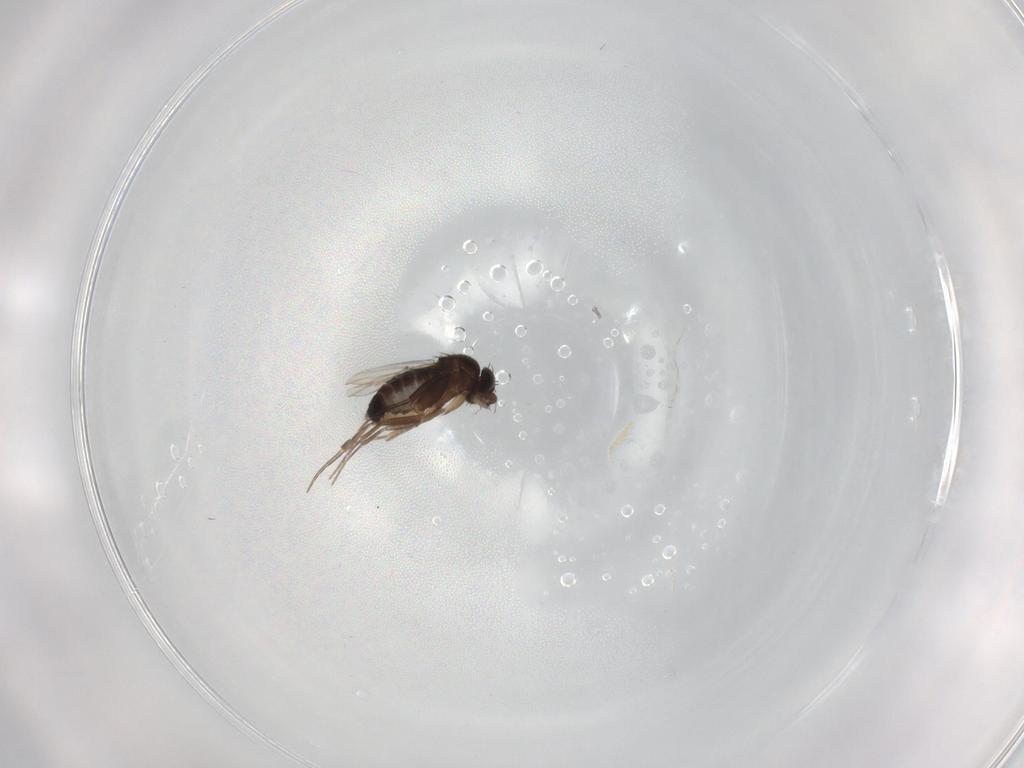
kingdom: Animalia
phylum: Arthropoda
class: Insecta
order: Diptera
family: Phoridae
